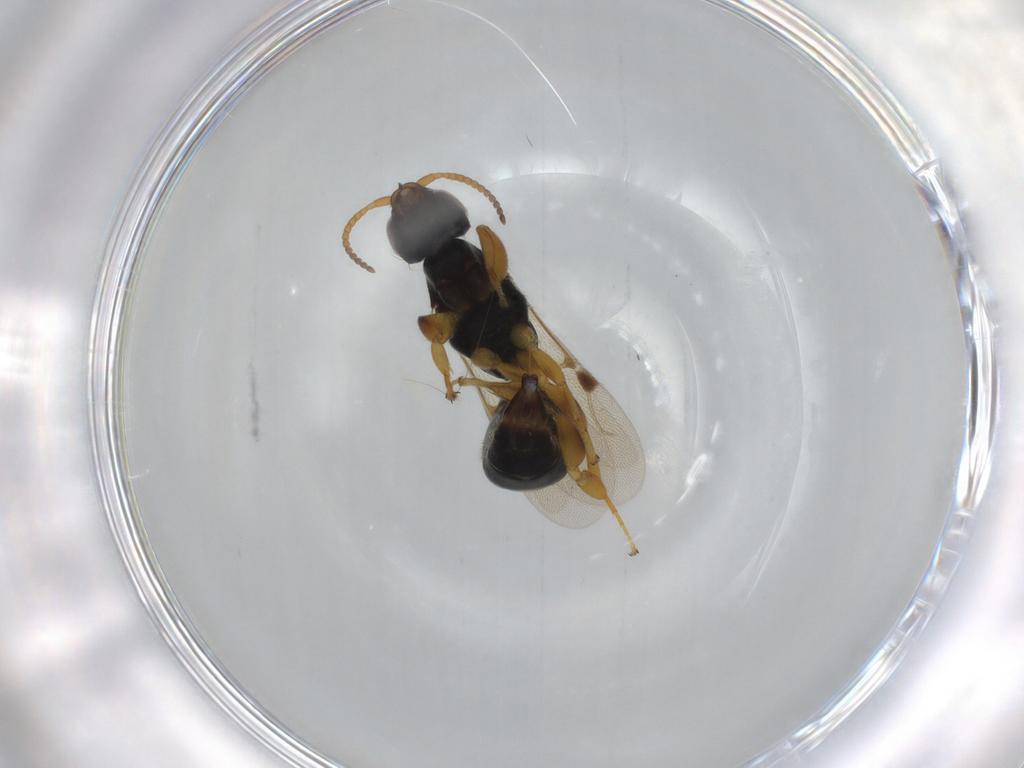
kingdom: Animalia
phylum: Arthropoda
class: Insecta
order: Hymenoptera
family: Bethylidae
